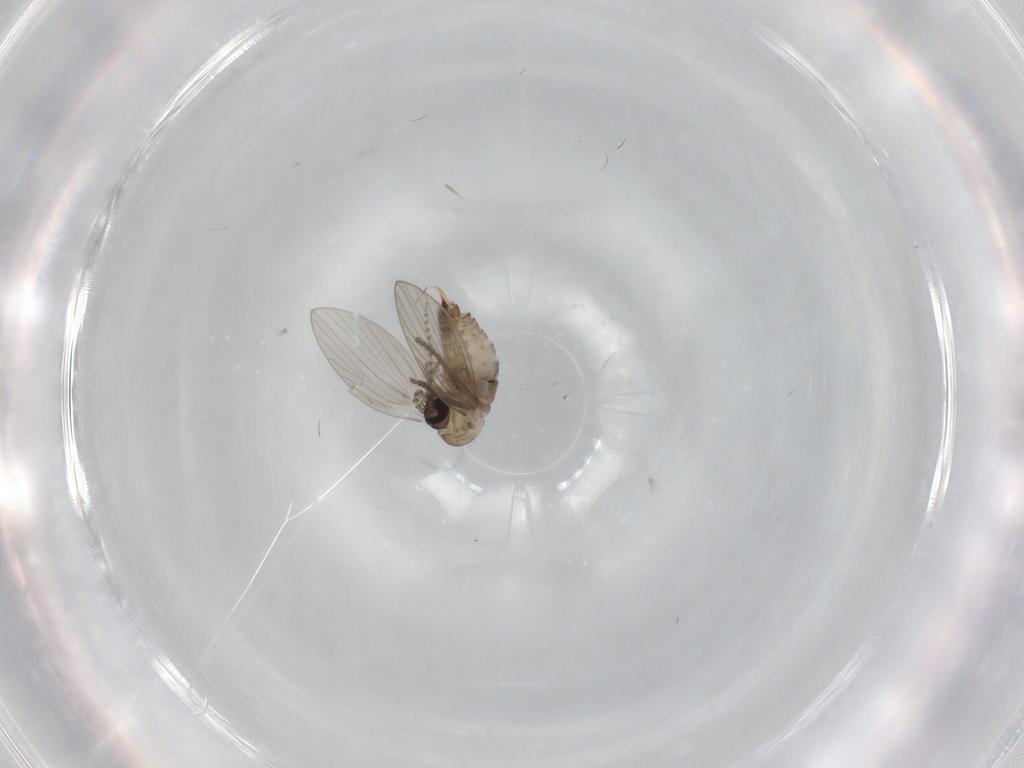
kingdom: Animalia
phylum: Arthropoda
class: Insecta
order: Diptera
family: Psychodidae
